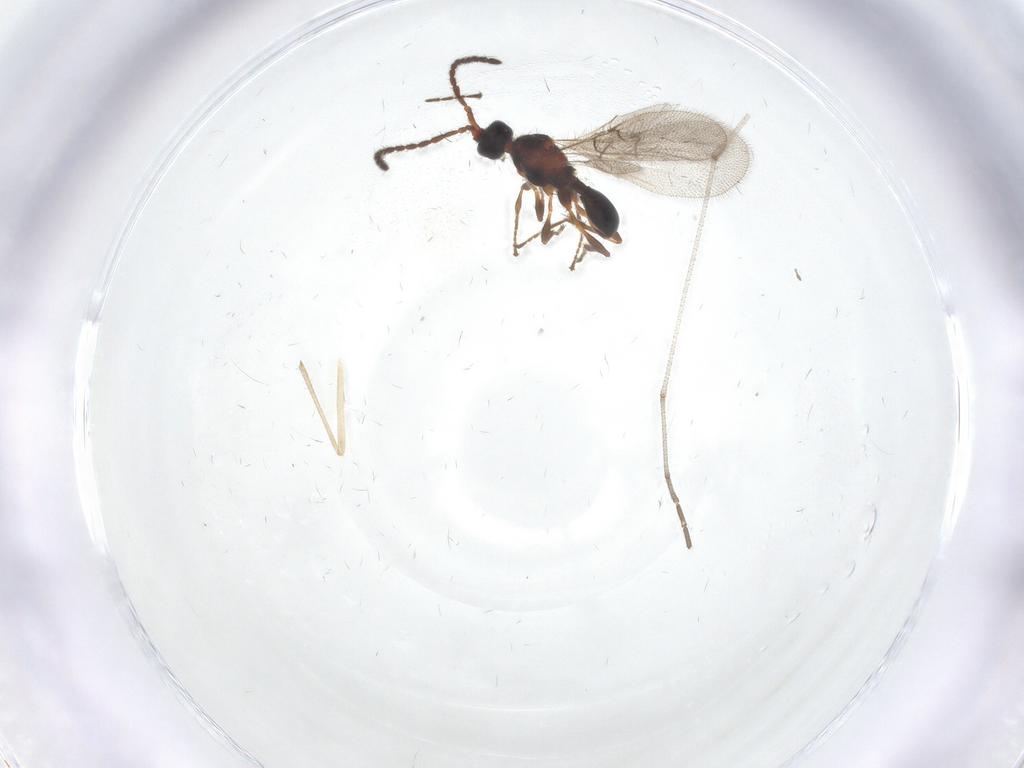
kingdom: Animalia
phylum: Arthropoda
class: Insecta
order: Hymenoptera
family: Diapriidae
